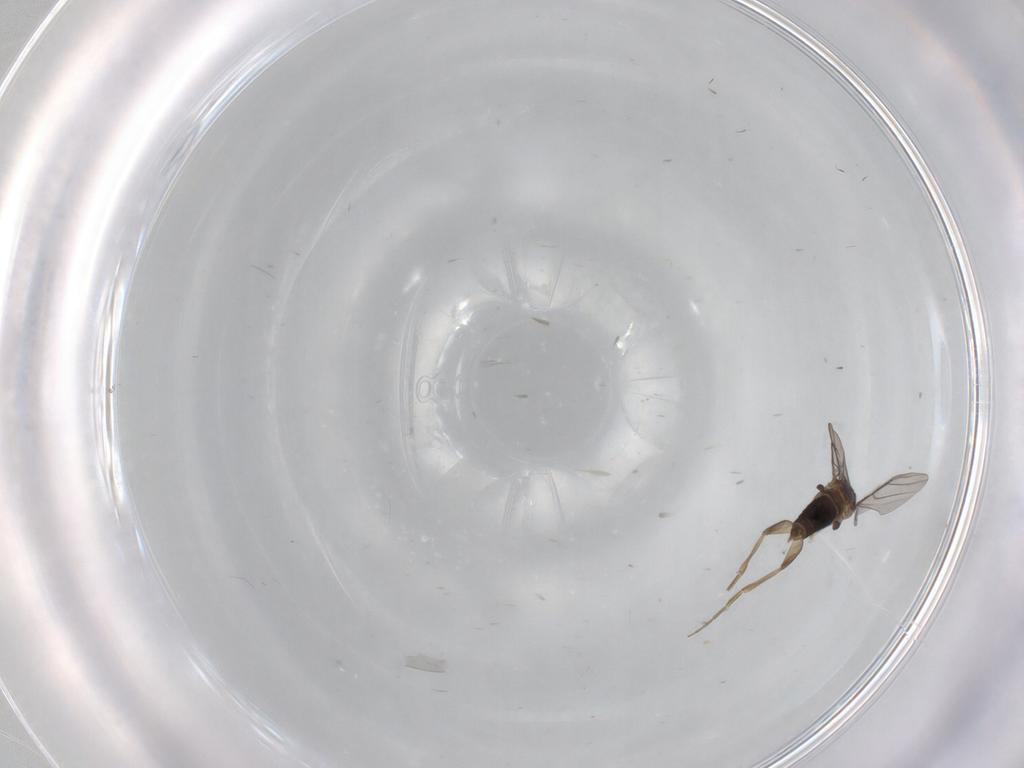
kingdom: Animalia
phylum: Arthropoda
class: Insecta
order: Diptera
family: Phoridae
